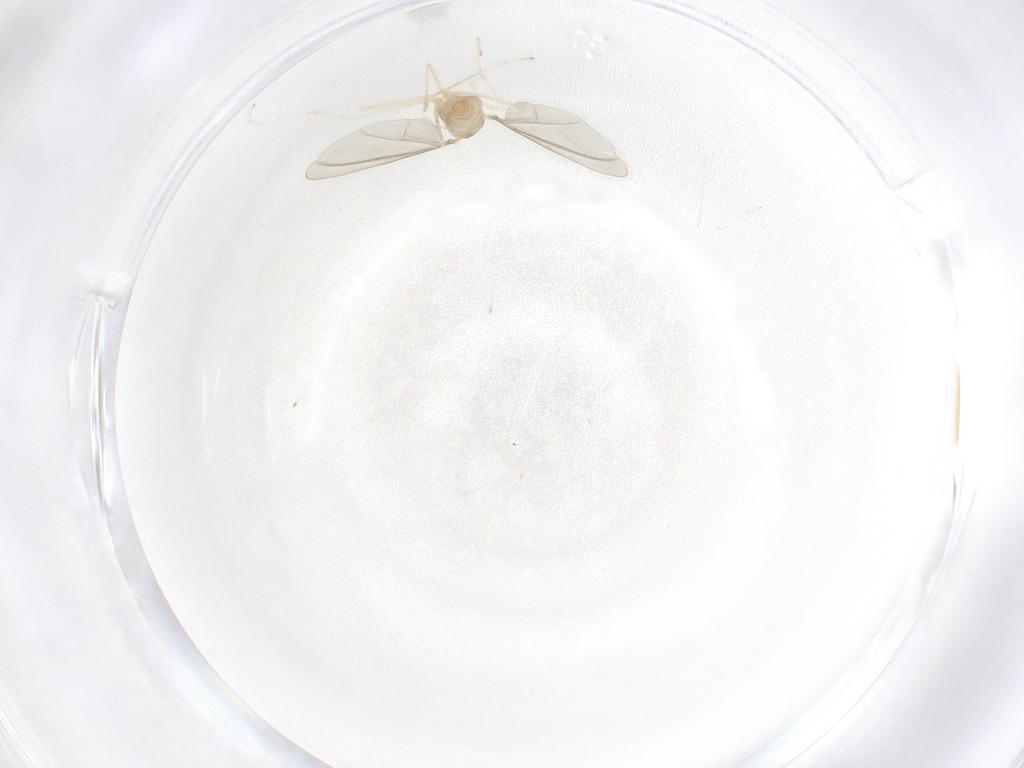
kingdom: Animalia
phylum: Arthropoda
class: Insecta
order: Diptera
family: Cecidomyiidae
